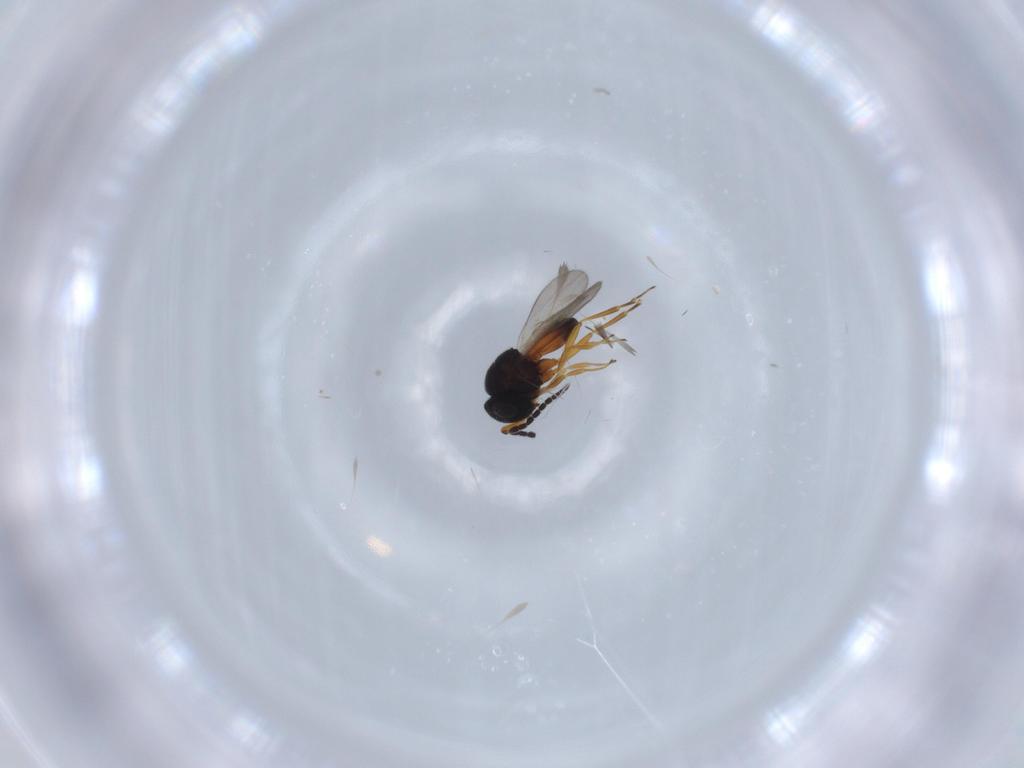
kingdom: Animalia
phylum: Arthropoda
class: Insecta
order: Hymenoptera
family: Scelionidae
